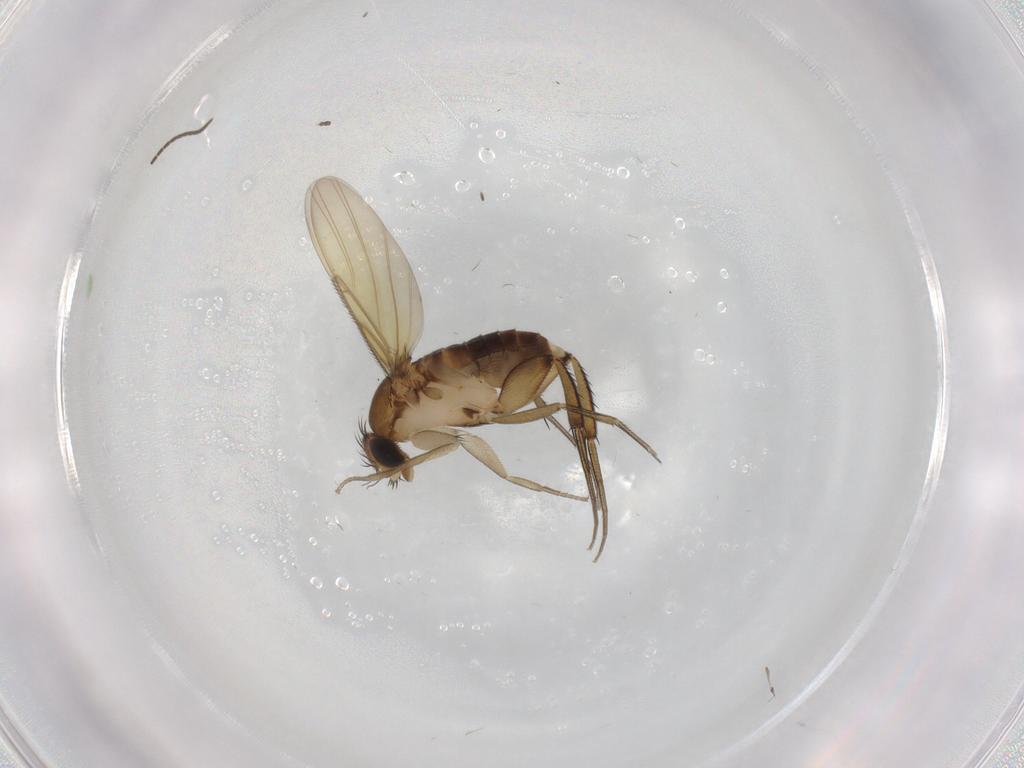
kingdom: Animalia
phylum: Arthropoda
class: Insecta
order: Diptera
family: Phoridae
